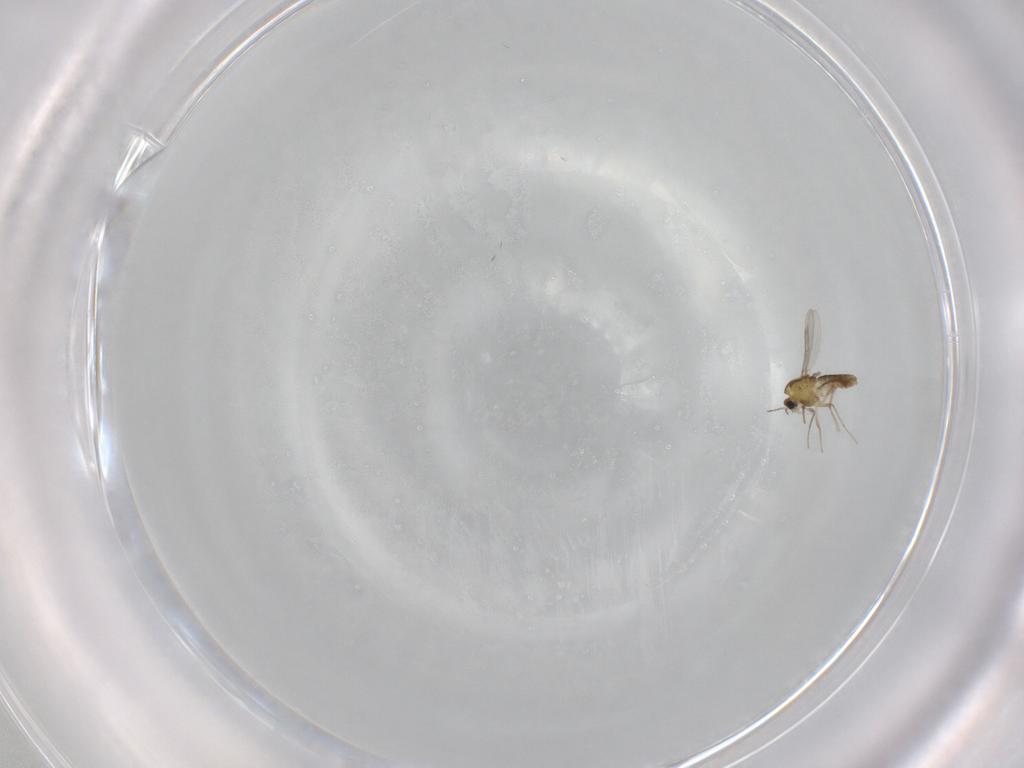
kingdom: Animalia
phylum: Arthropoda
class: Insecta
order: Diptera
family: Chironomidae
